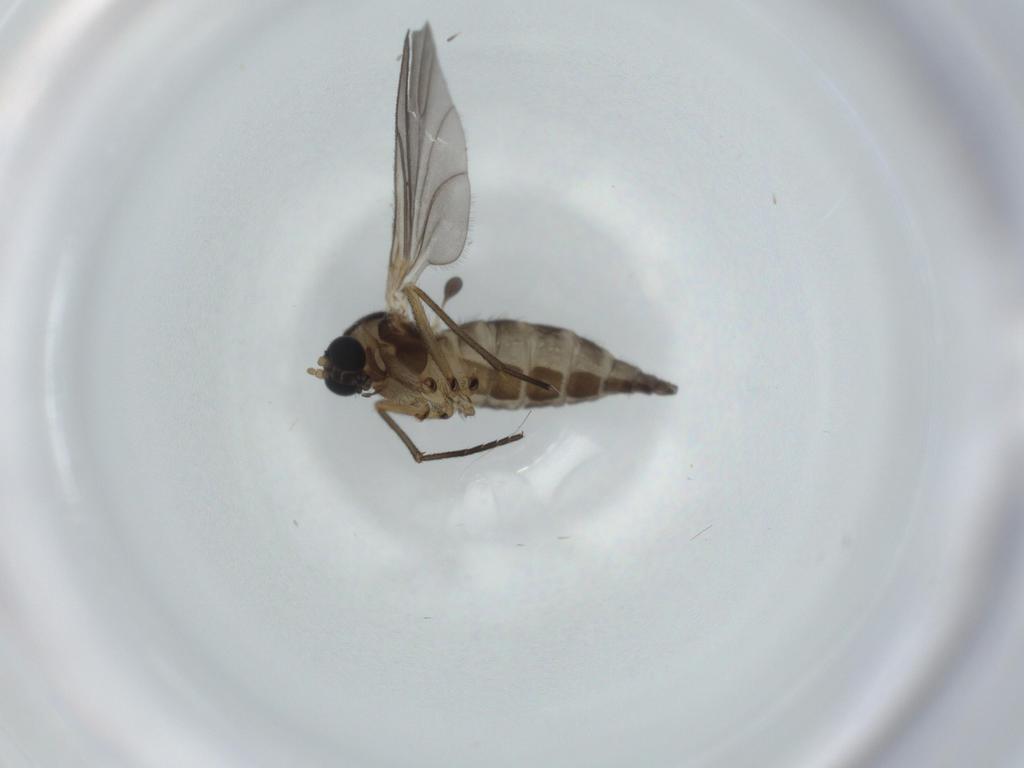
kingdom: Animalia
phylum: Arthropoda
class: Insecta
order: Diptera
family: Sciaridae
